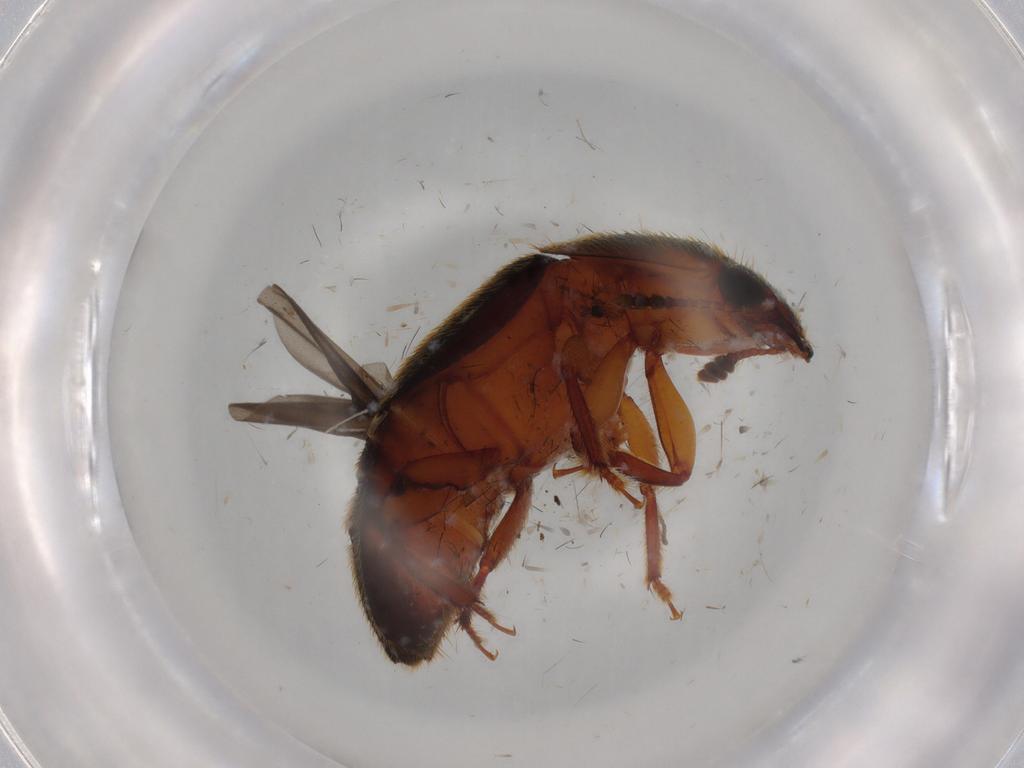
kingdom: Animalia
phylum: Arthropoda
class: Insecta
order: Coleoptera
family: Nitidulidae
